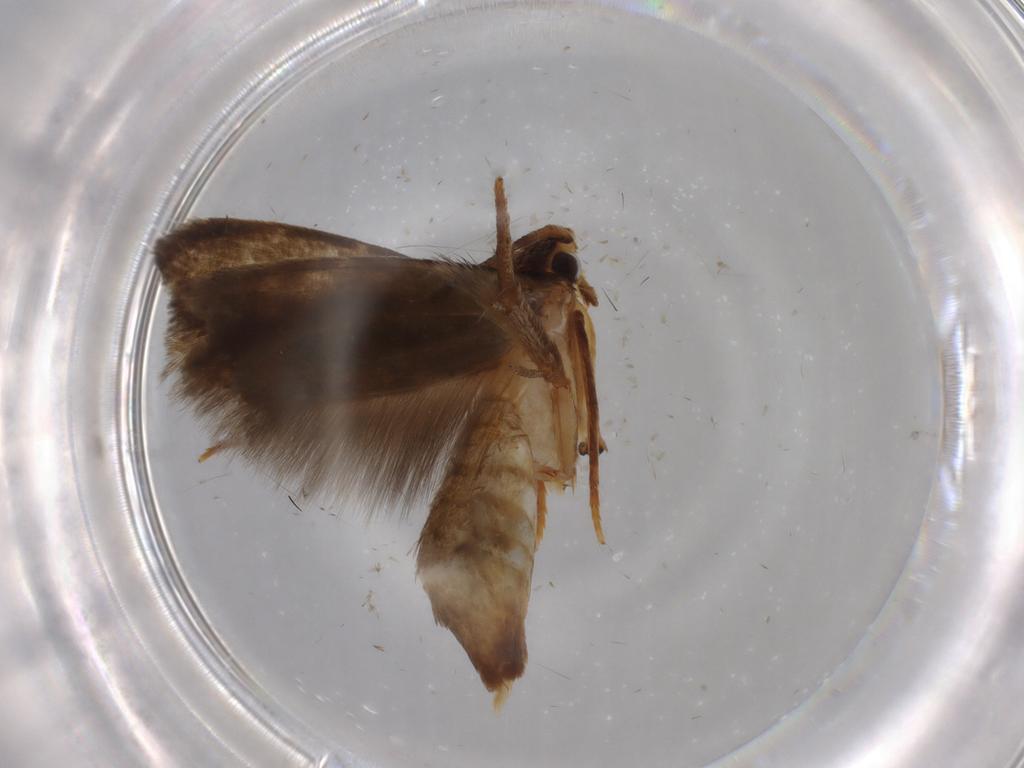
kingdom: Animalia
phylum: Arthropoda
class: Insecta
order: Lepidoptera
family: Tineidae
